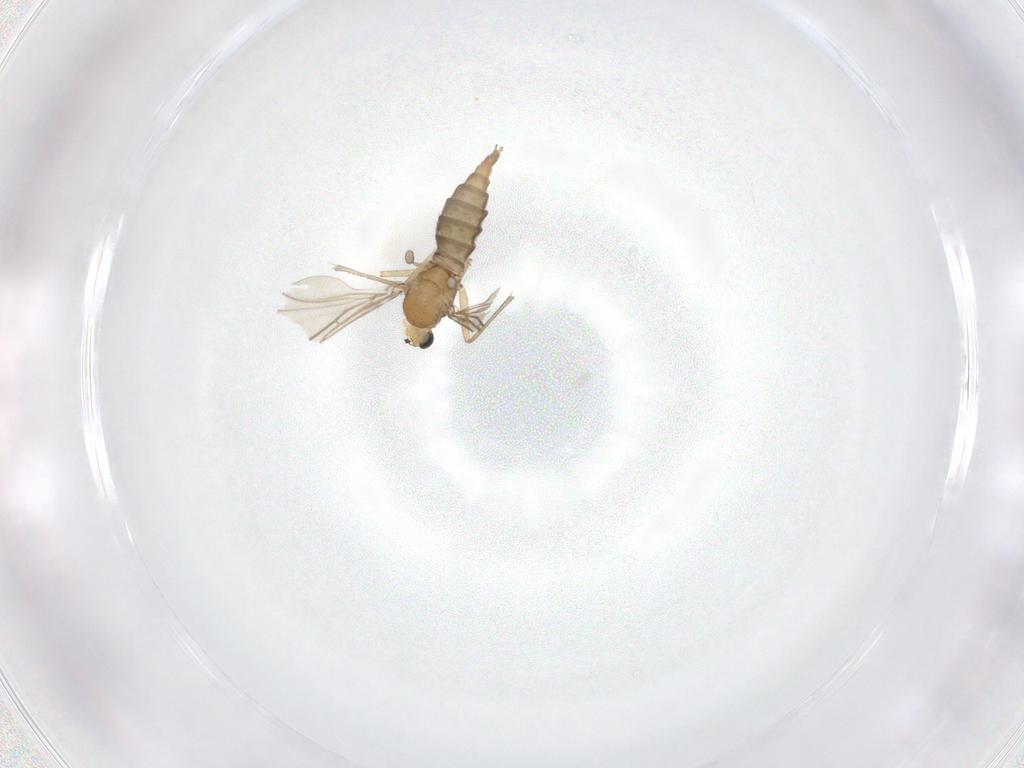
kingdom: Animalia
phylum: Arthropoda
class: Insecta
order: Diptera
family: Sciaridae
